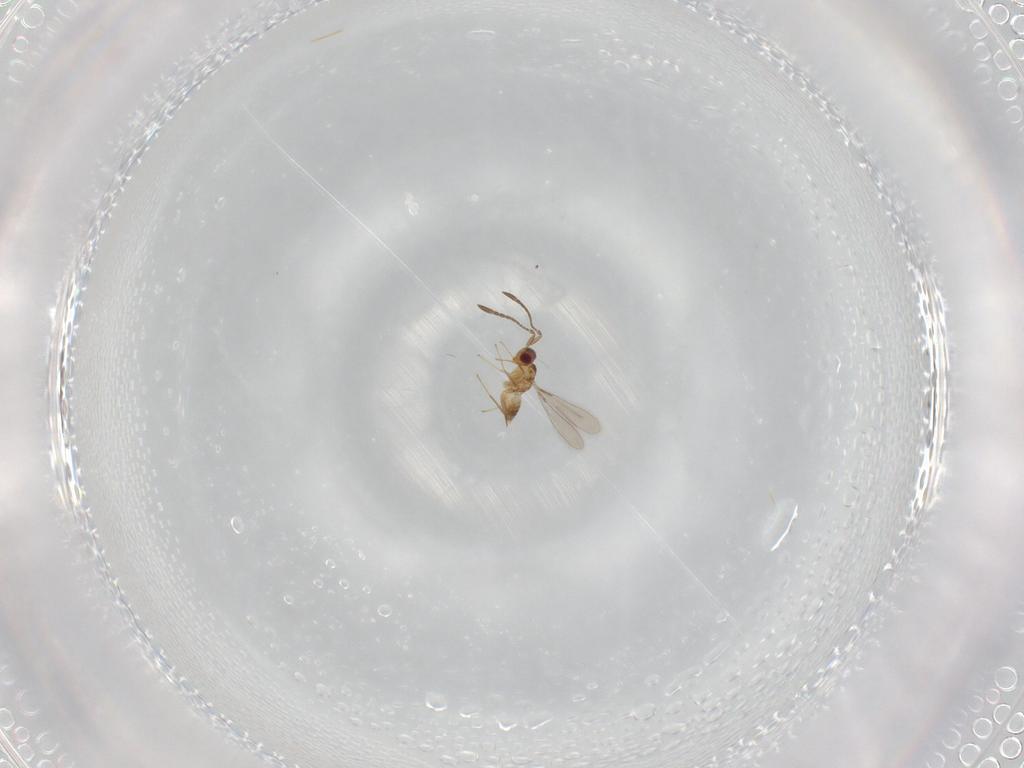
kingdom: Animalia
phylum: Arthropoda
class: Insecta
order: Hymenoptera
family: Mymaridae
